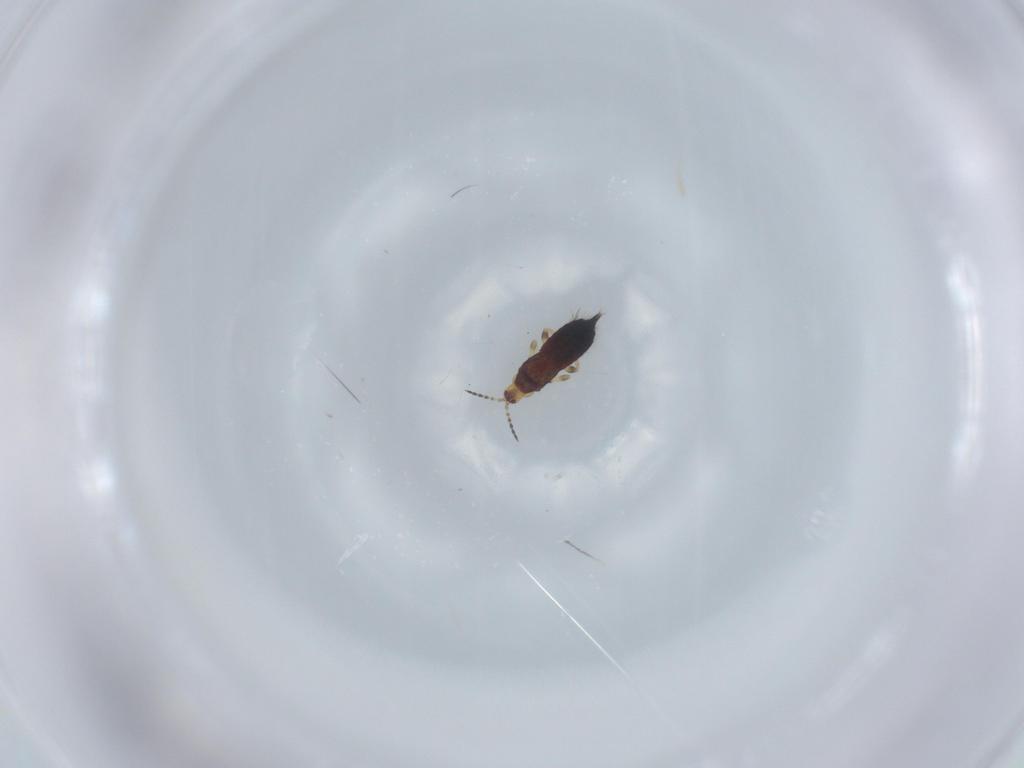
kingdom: Animalia
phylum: Arthropoda
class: Insecta
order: Thysanoptera
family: Phlaeothripidae
